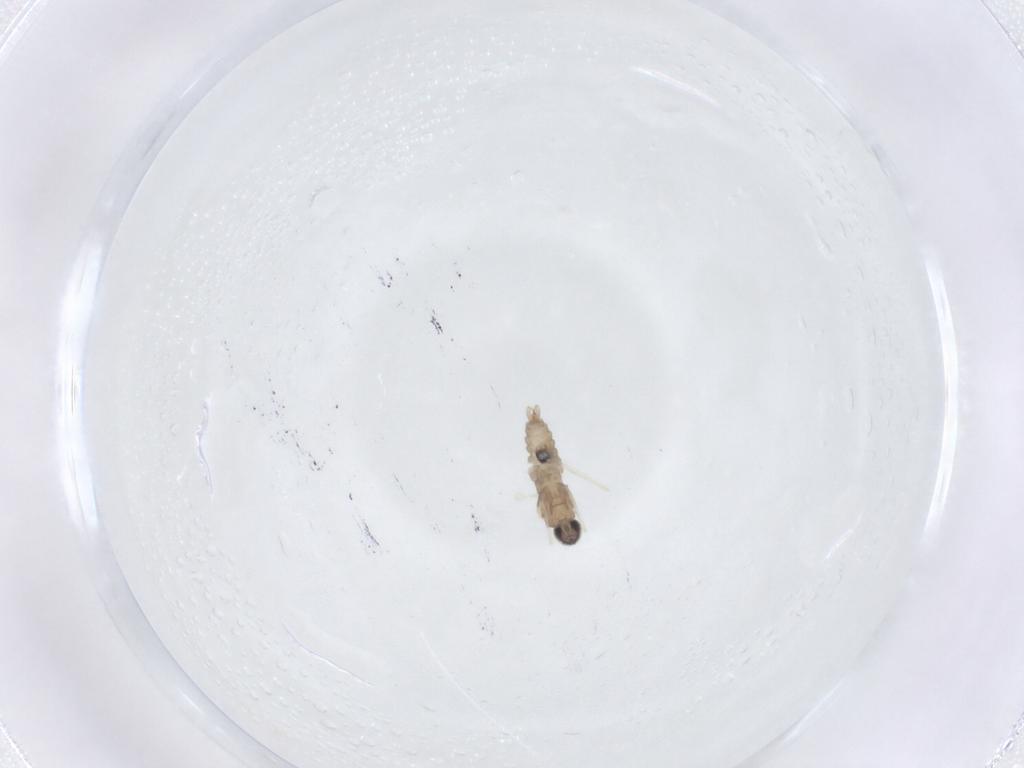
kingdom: Animalia
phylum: Arthropoda
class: Insecta
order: Diptera
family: Cecidomyiidae
